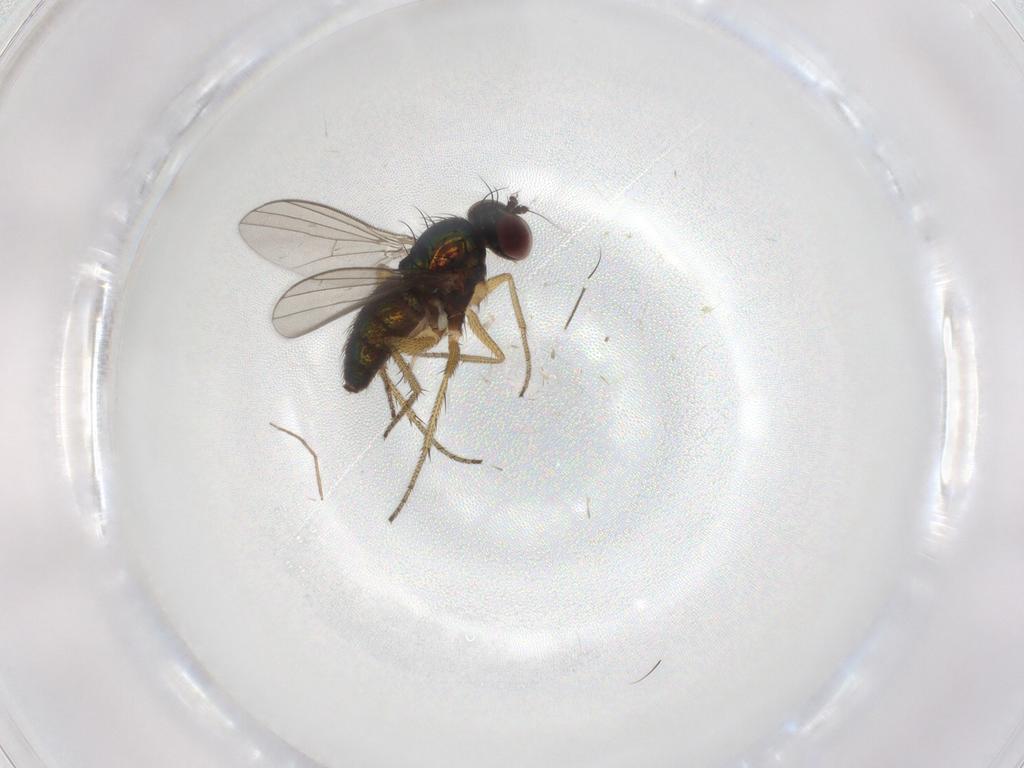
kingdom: Animalia
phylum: Arthropoda
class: Insecta
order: Diptera
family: Dolichopodidae
